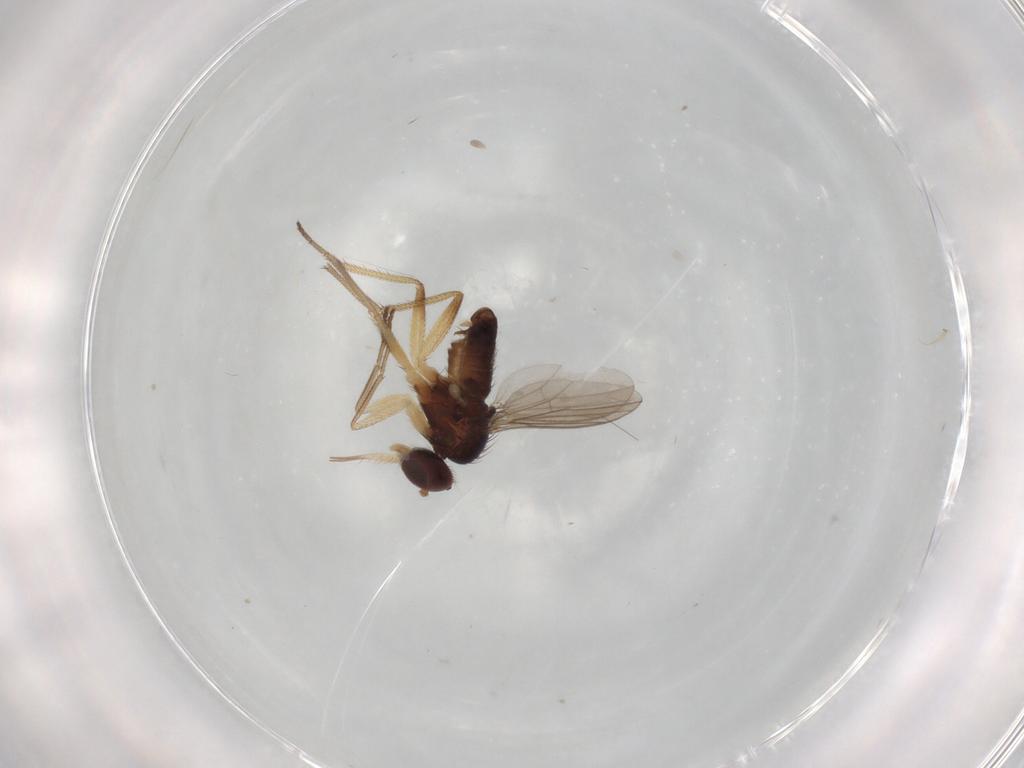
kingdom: Animalia
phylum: Arthropoda
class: Insecta
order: Diptera
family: Dolichopodidae
